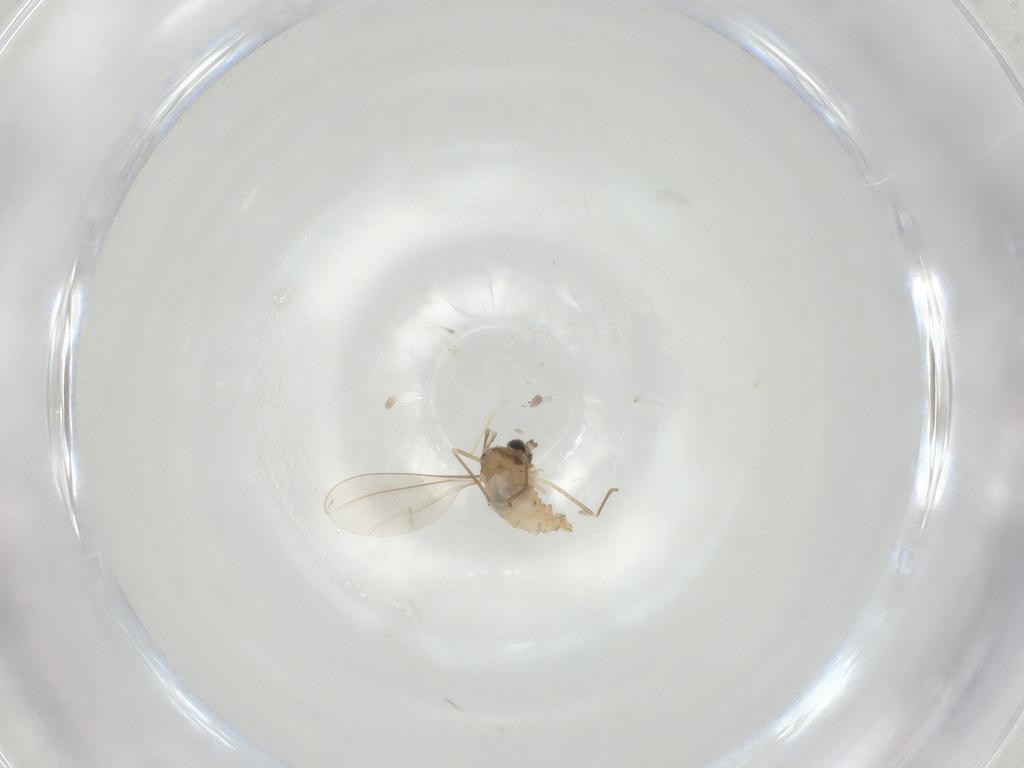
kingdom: Animalia
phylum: Arthropoda
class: Insecta
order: Diptera
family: Cecidomyiidae
